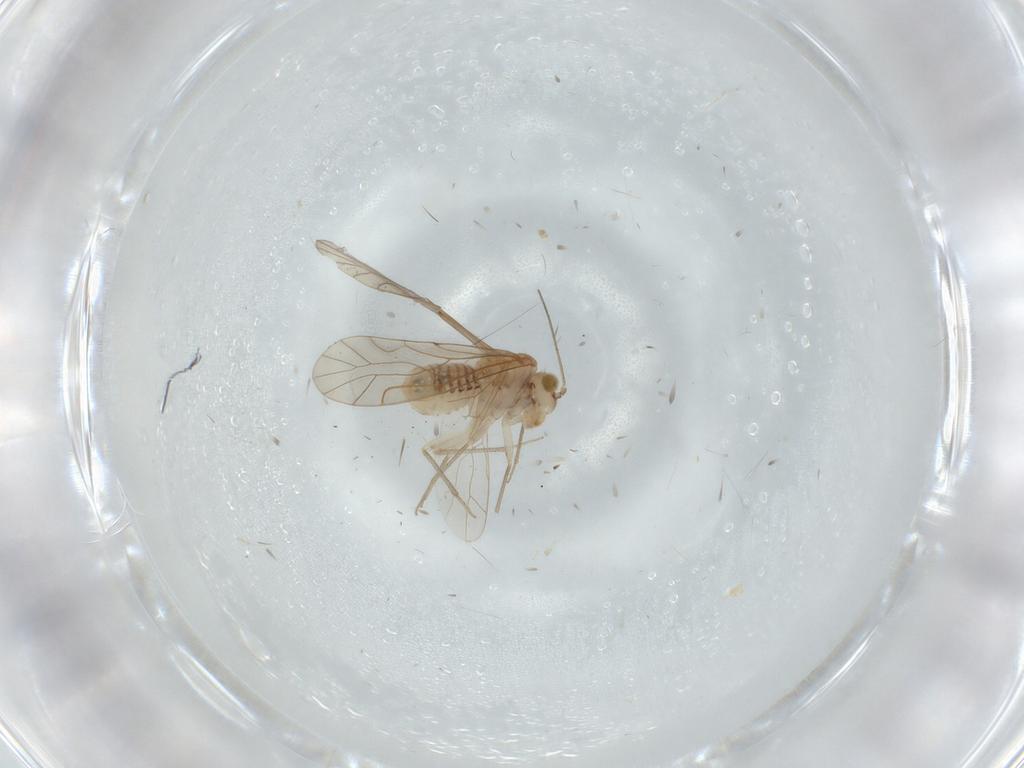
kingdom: Animalia
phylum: Arthropoda
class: Insecta
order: Psocodea
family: Lachesillidae
